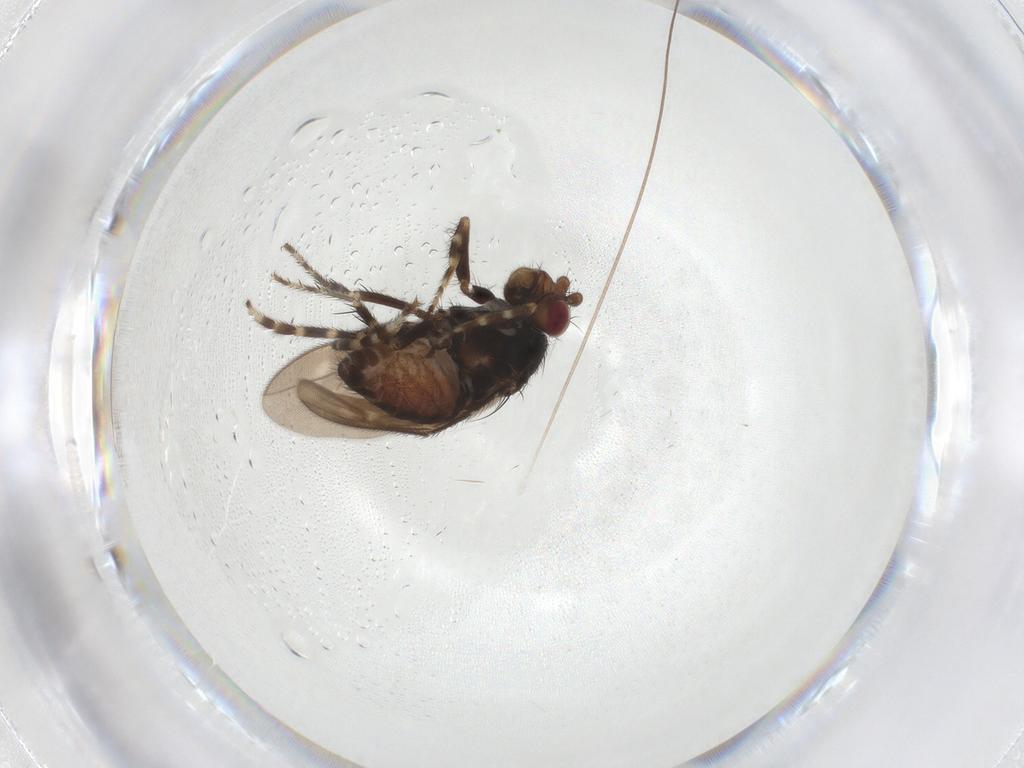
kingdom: Animalia
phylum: Arthropoda
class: Insecta
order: Diptera
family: Sphaeroceridae
